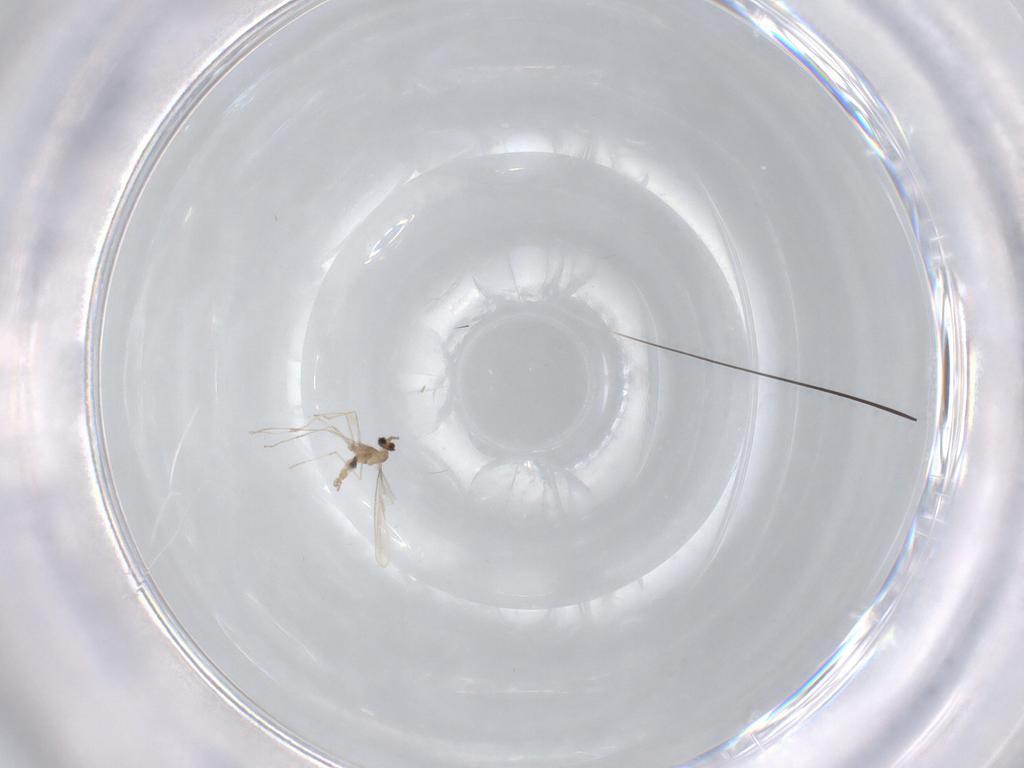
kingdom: Animalia
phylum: Arthropoda
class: Insecta
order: Diptera
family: Cecidomyiidae
